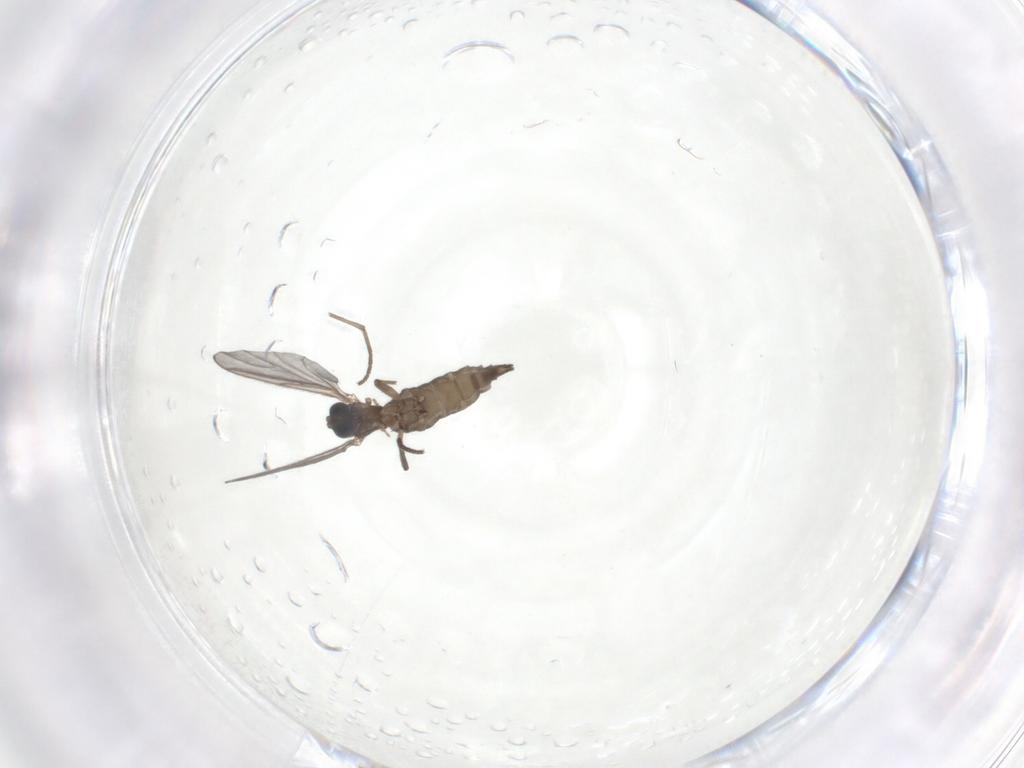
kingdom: Animalia
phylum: Arthropoda
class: Insecta
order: Diptera
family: Sciaridae
